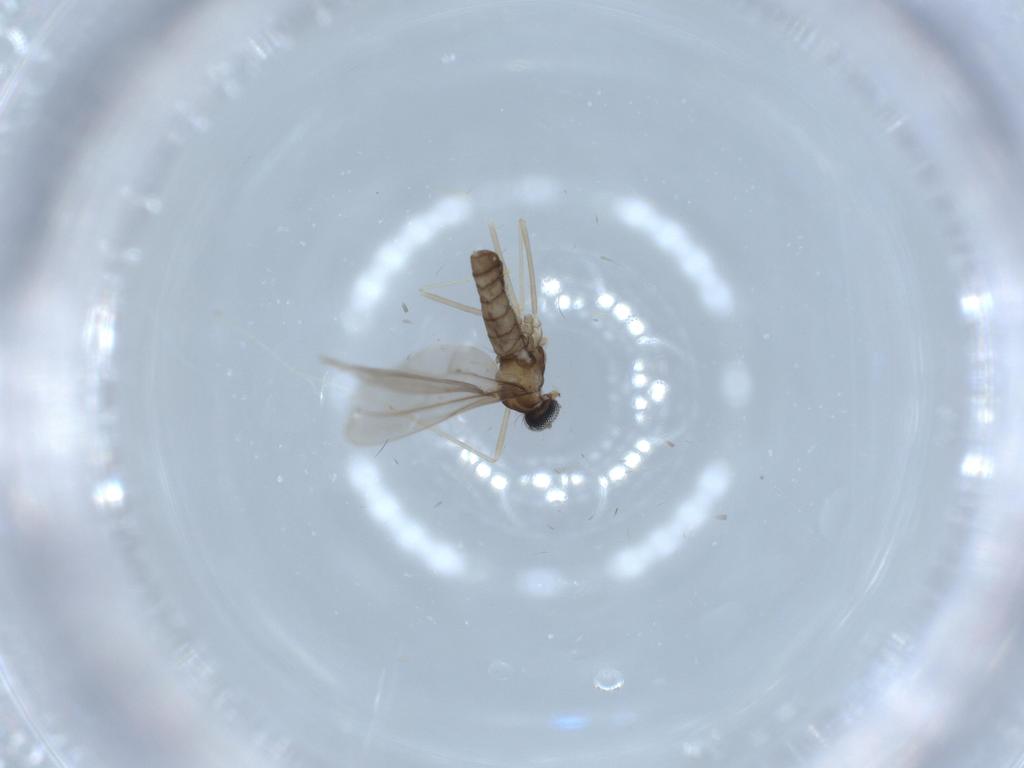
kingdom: Animalia
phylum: Arthropoda
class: Insecta
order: Diptera
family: Cecidomyiidae
